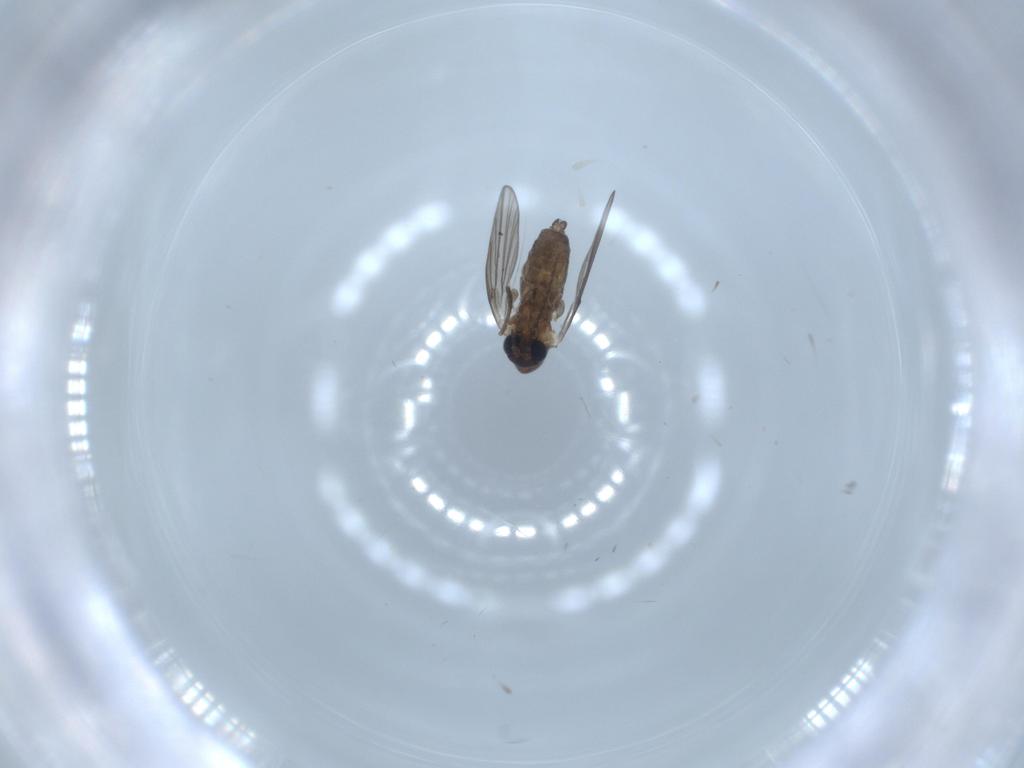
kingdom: Animalia
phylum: Arthropoda
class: Insecta
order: Diptera
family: Psychodidae
